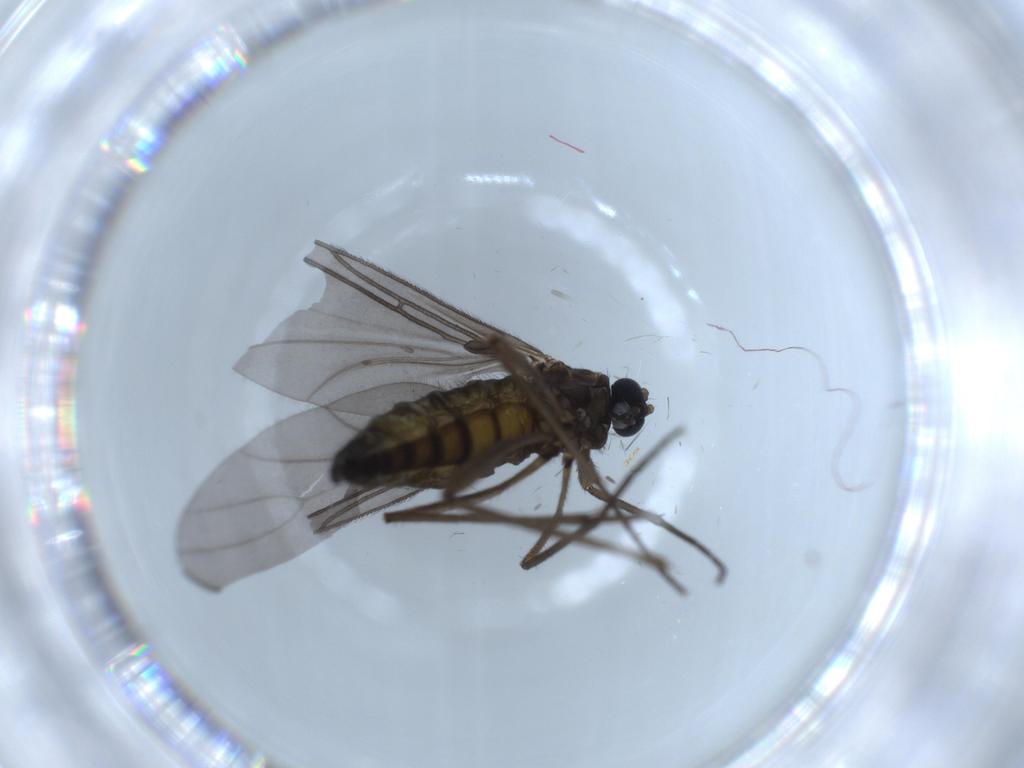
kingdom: Animalia
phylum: Arthropoda
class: Insecta
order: Diptera
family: Sciaridae
